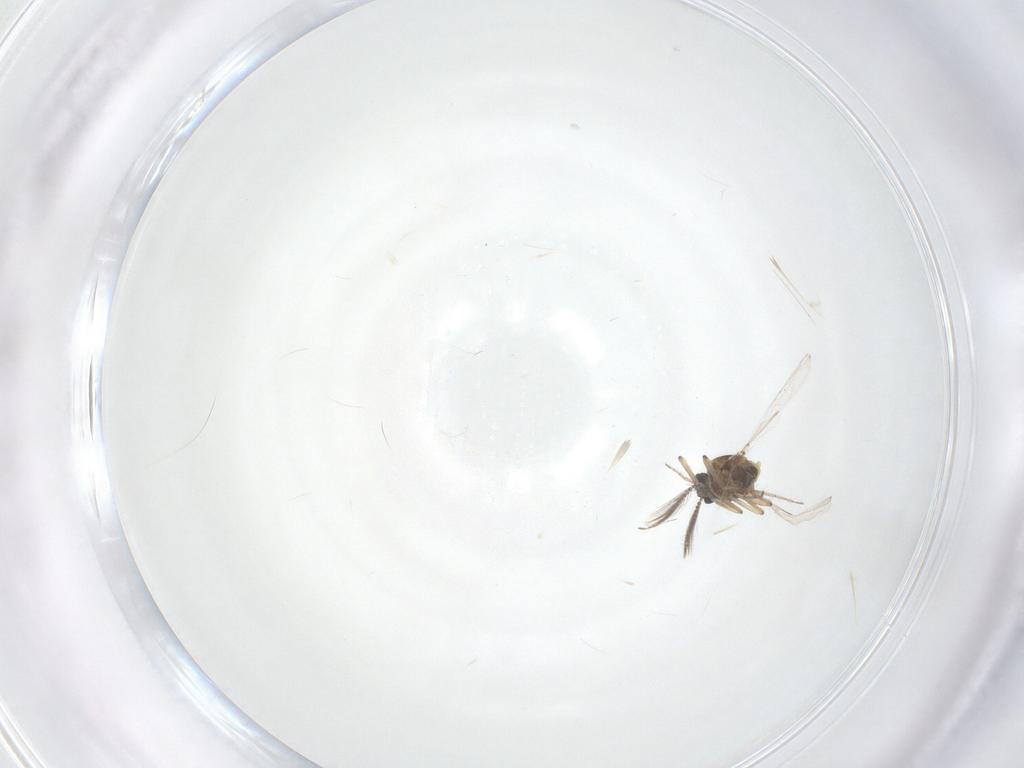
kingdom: Animalia
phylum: Arthropoda
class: Insecta
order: Diptera
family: Ceratopogonidae
